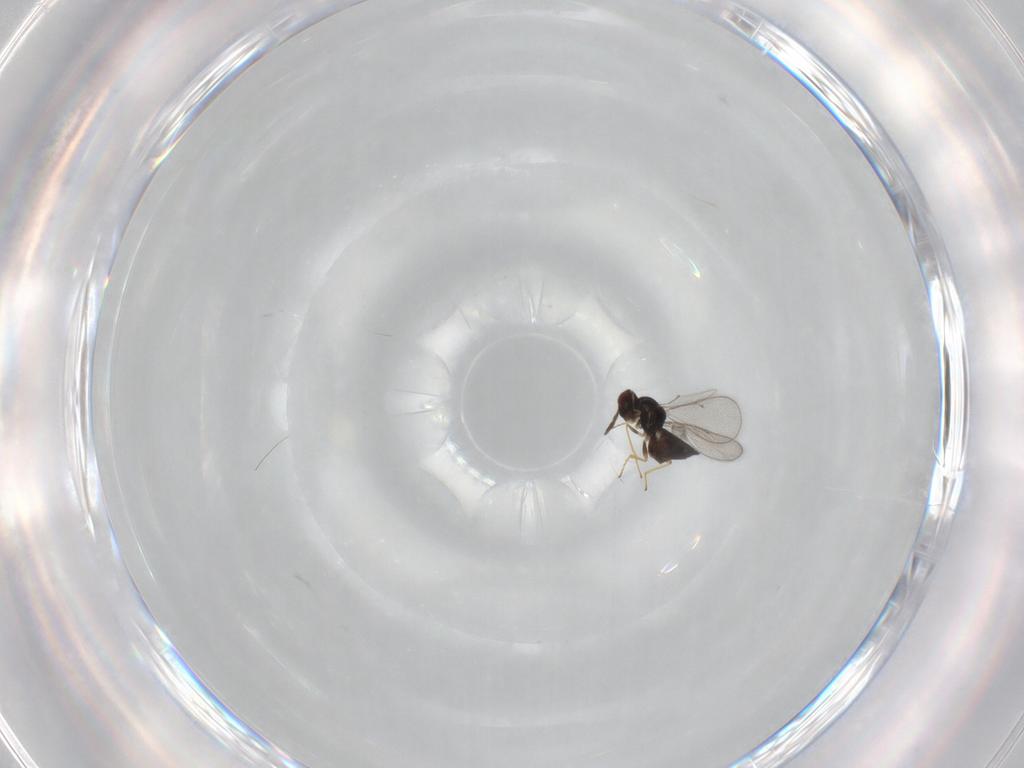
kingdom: Animalia
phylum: Arthropoda
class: Insecta
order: Hymenoptera
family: Eulophidae
